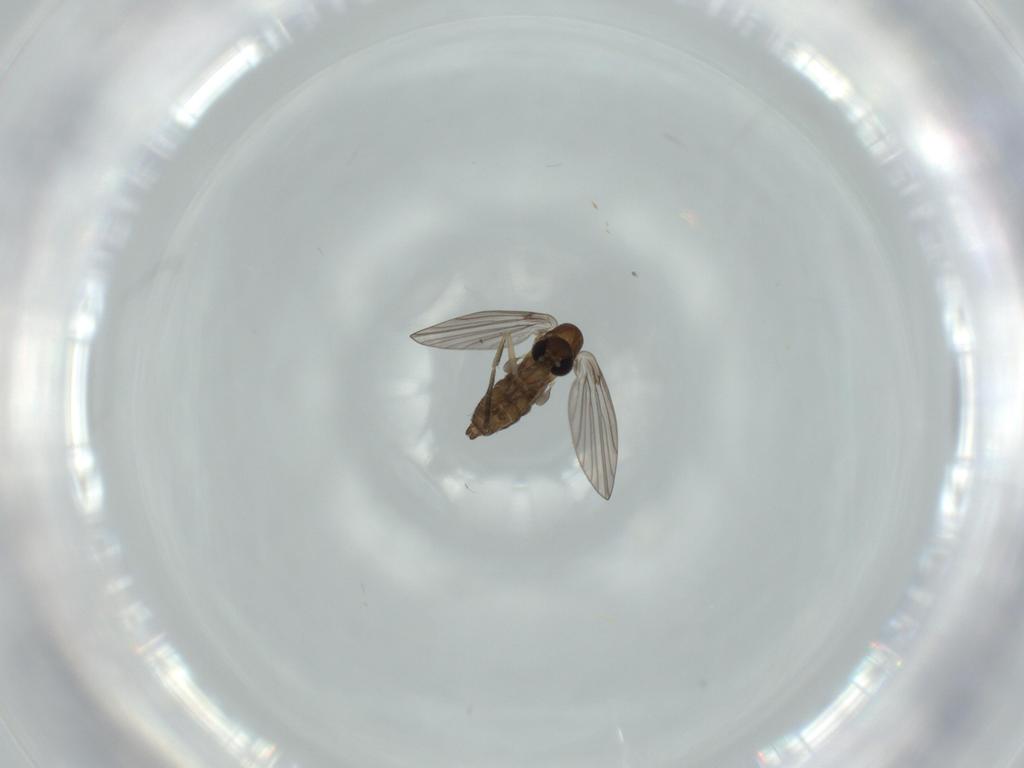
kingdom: Animalia
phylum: Arthropoda
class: Insecta
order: Diptera
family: Psychodidae
